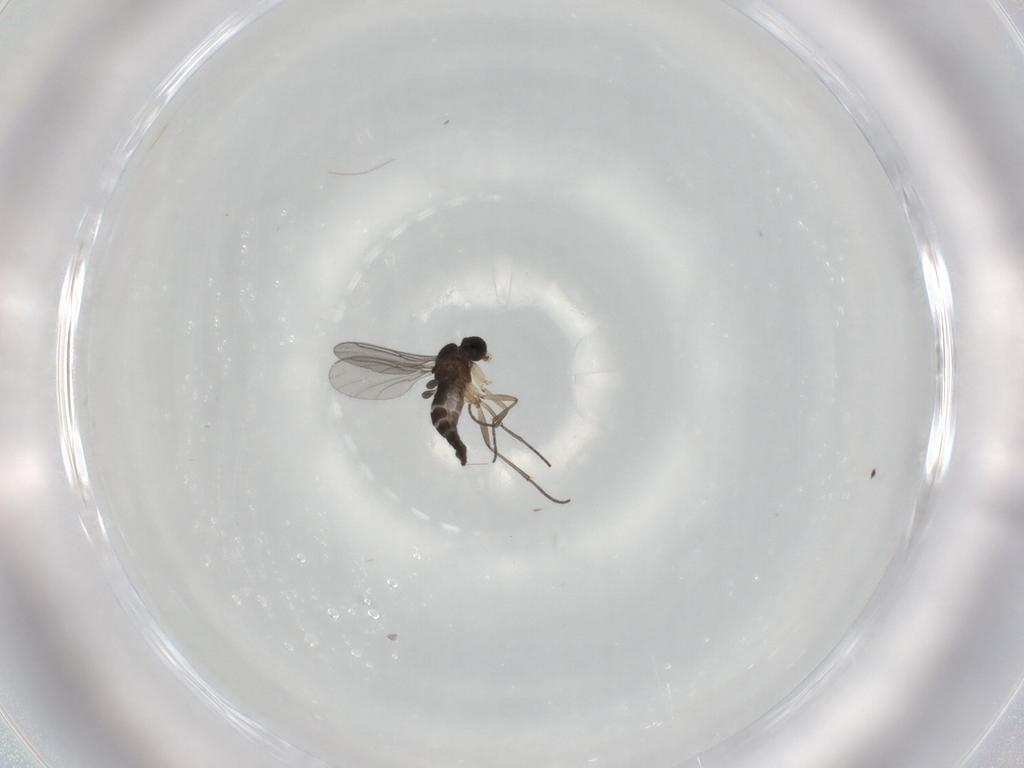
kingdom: Animalia
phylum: Arthropoda
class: Insecta
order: Diptera
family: Sciaridae
